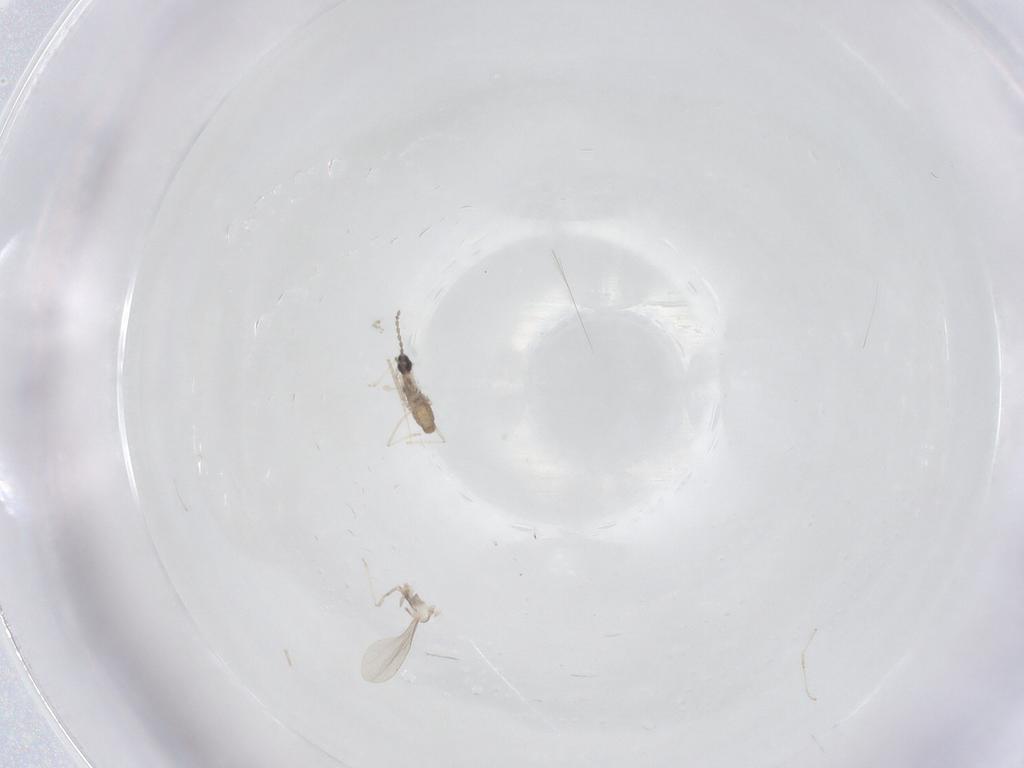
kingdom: Animalia
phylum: Arthropoda
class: Insecta
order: Diptera
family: Cecidomyiidae
